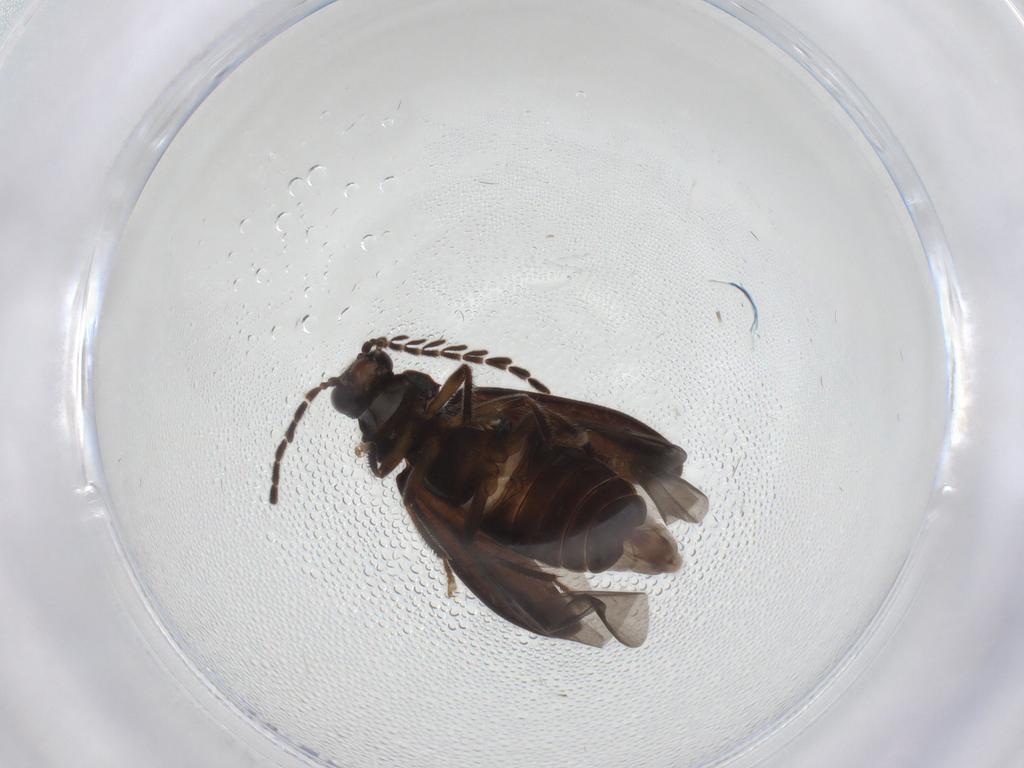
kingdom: Animalia
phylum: Arthropoda
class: Insecta
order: Coleoptera
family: Ptilodactylidae
